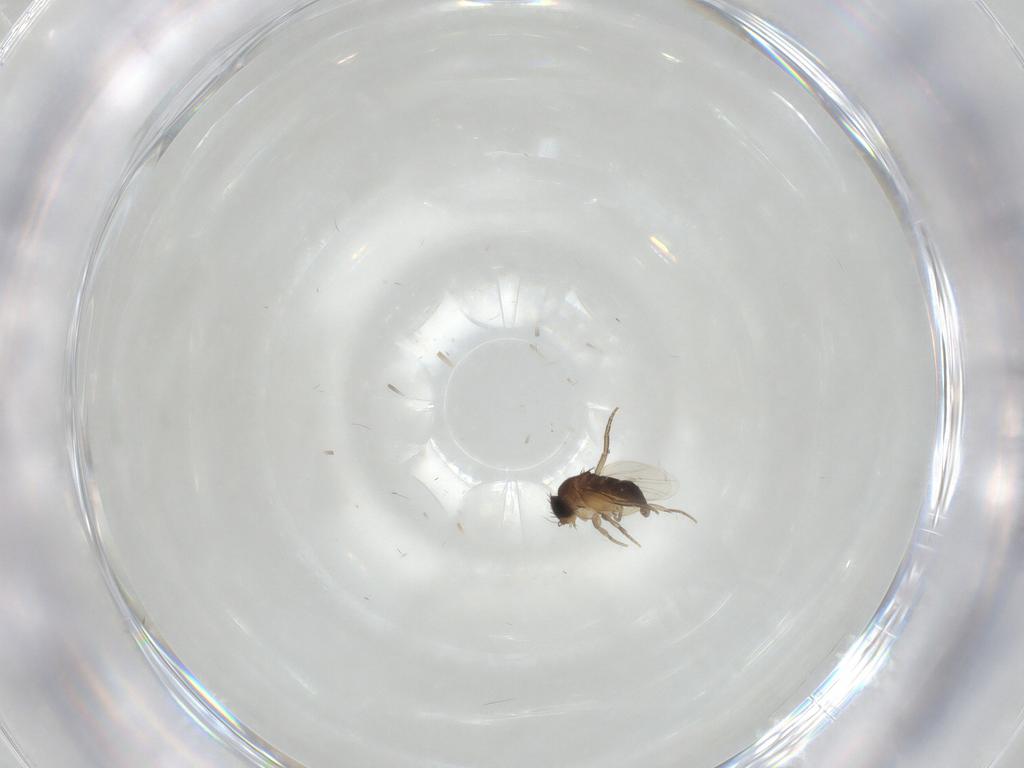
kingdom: Animalia
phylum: Arthropoda
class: Insecta
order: Diptera
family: Phoridae
